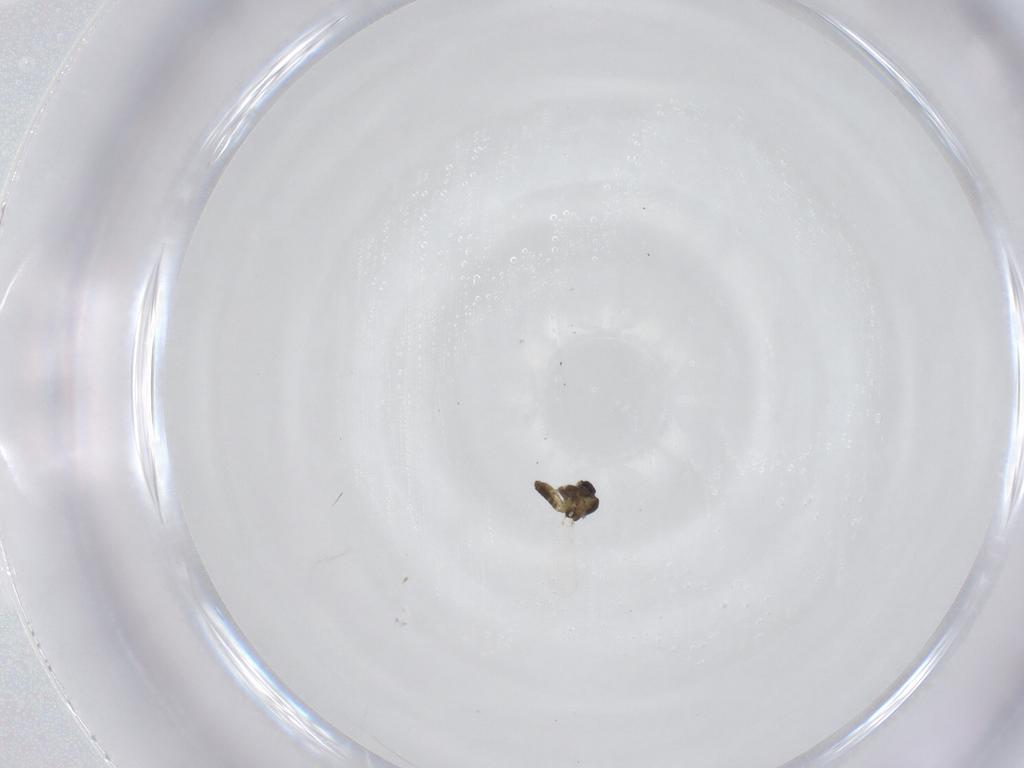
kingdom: Animalia
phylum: Arthropoda
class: Insecta
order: Diptera
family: Chironomidae
